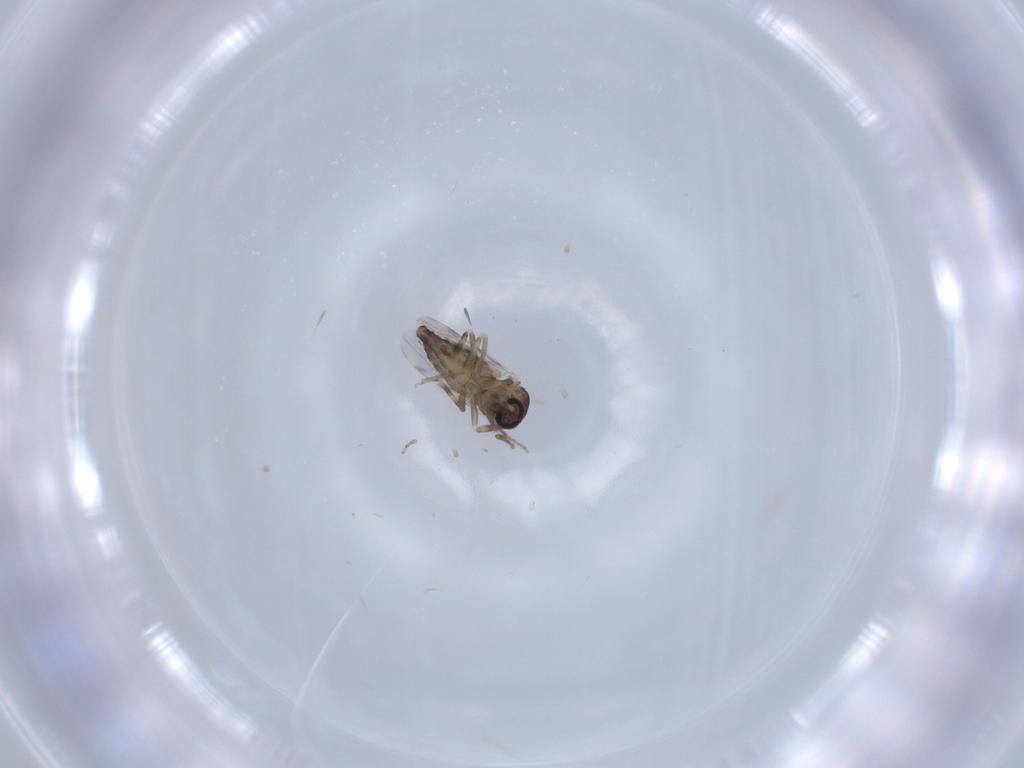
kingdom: Animalia
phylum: Arthropoda
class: Insecta
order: Diptera
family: Ceratopogonidae
